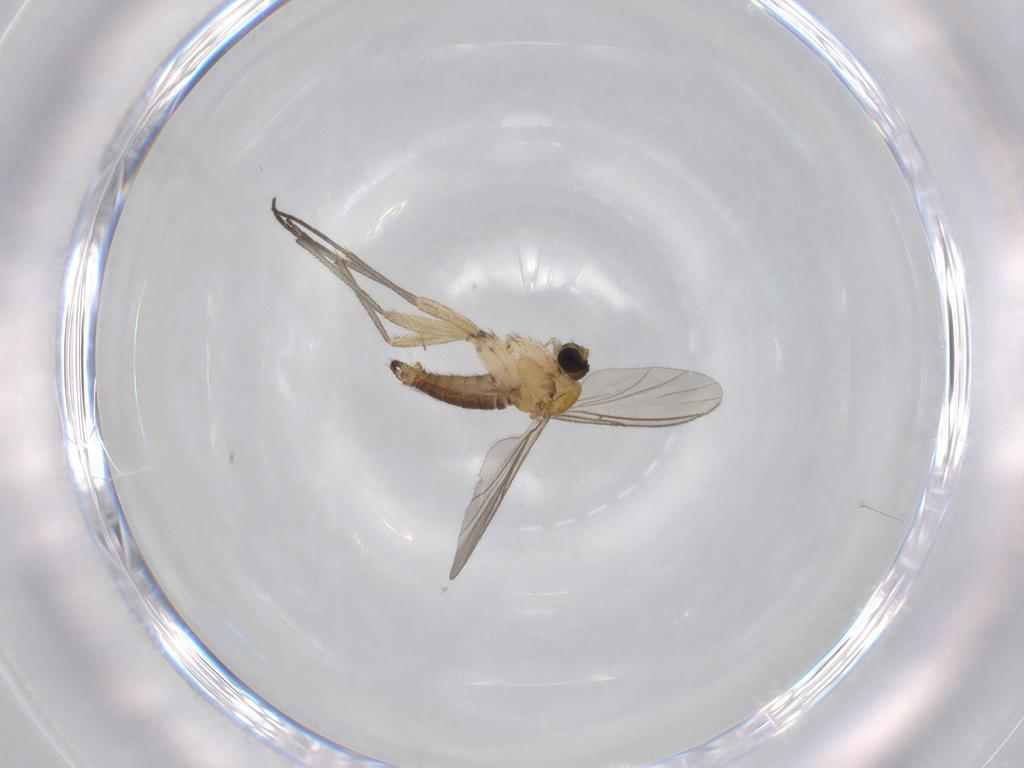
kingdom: Animalia
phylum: Arthropoda
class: Insecta
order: Diptera
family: Sciaridae
